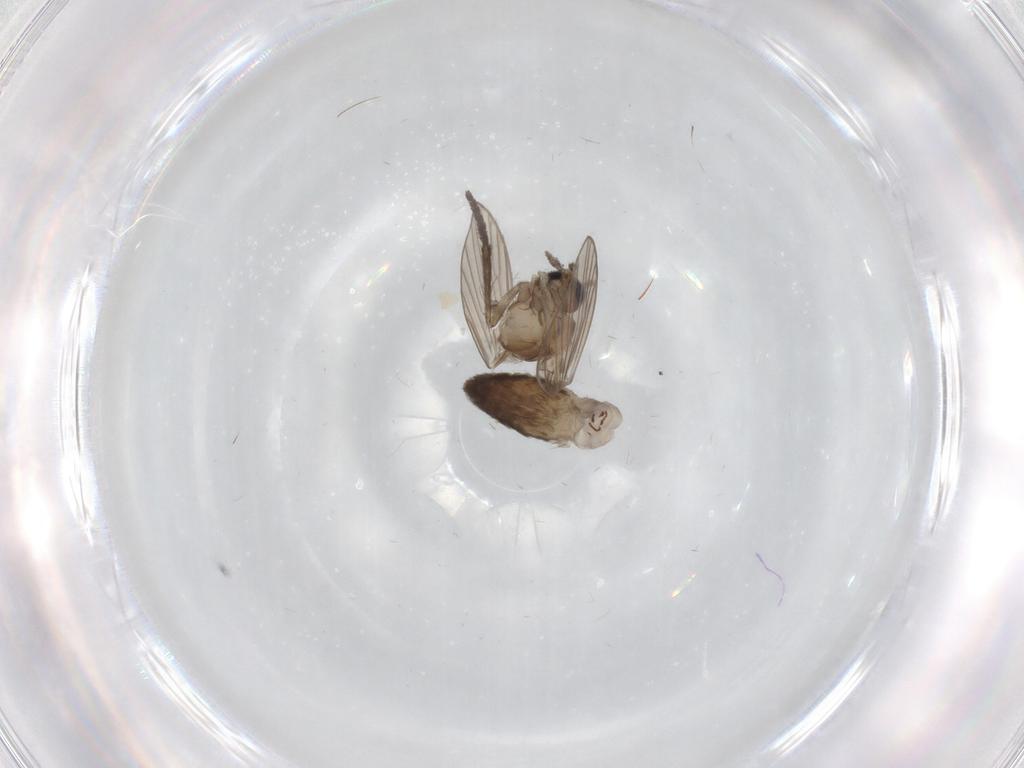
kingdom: Animalia
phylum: Arthropoda
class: Insecta
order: Diptera
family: Psychodidae
